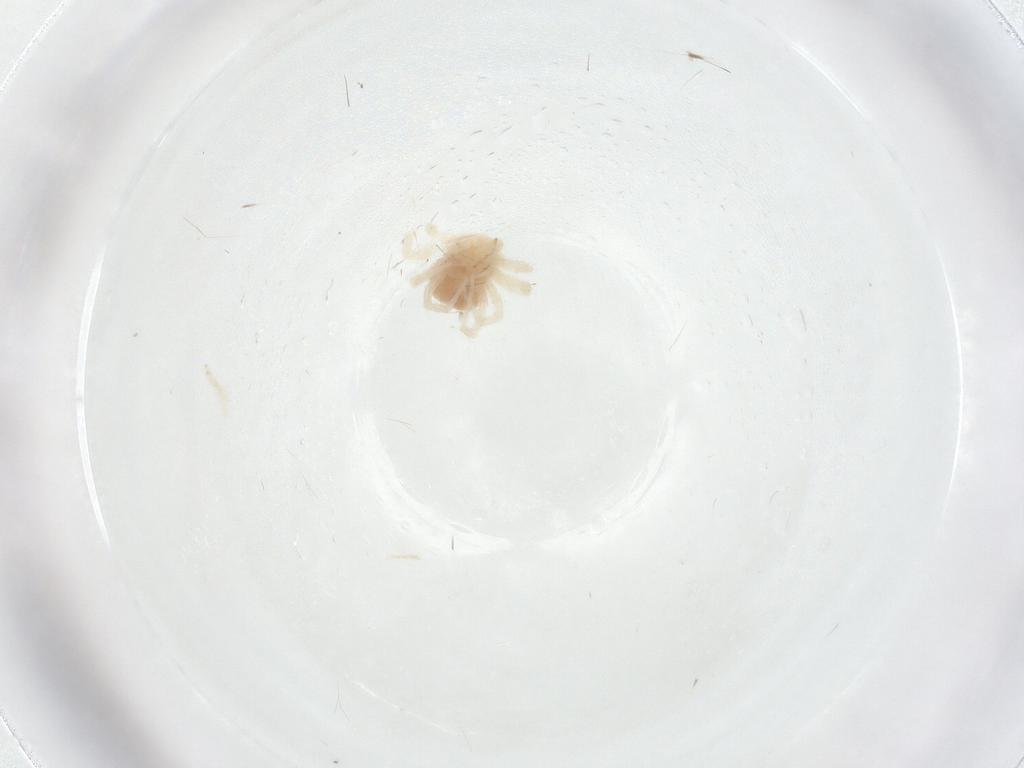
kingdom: Animalia
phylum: Arthropoda
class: Arachnida
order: Trombidiformes
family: Anystidae
